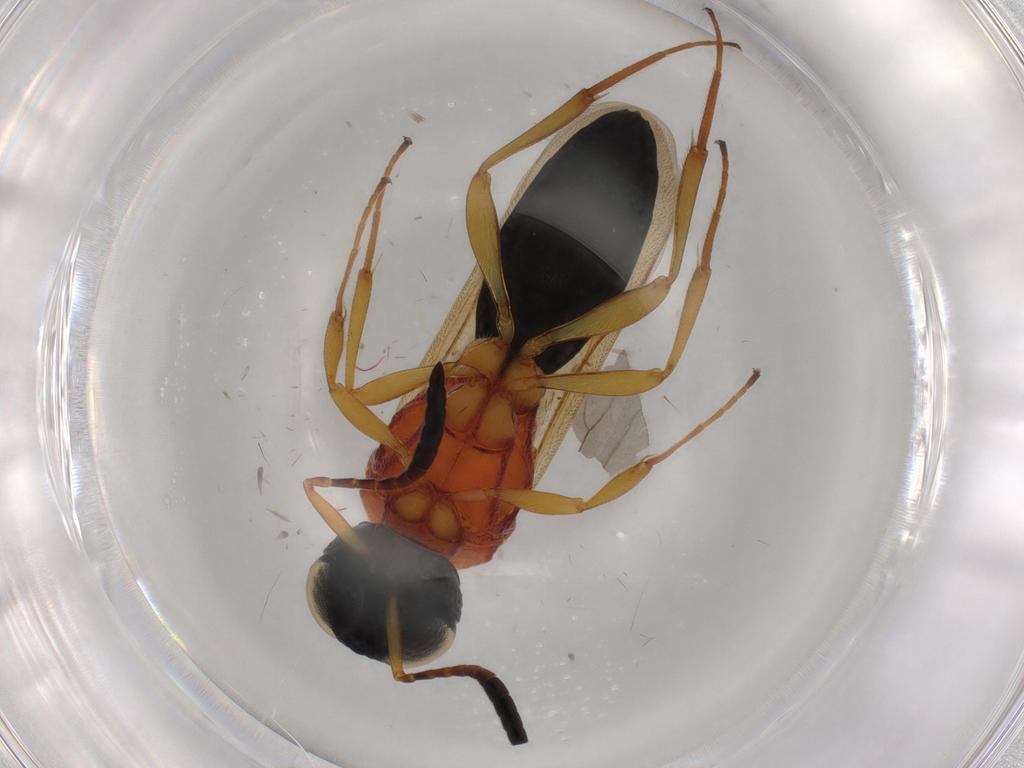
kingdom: Animalia
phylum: Arthropoda
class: Insecta
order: Hymenoptera
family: Scelionidae
